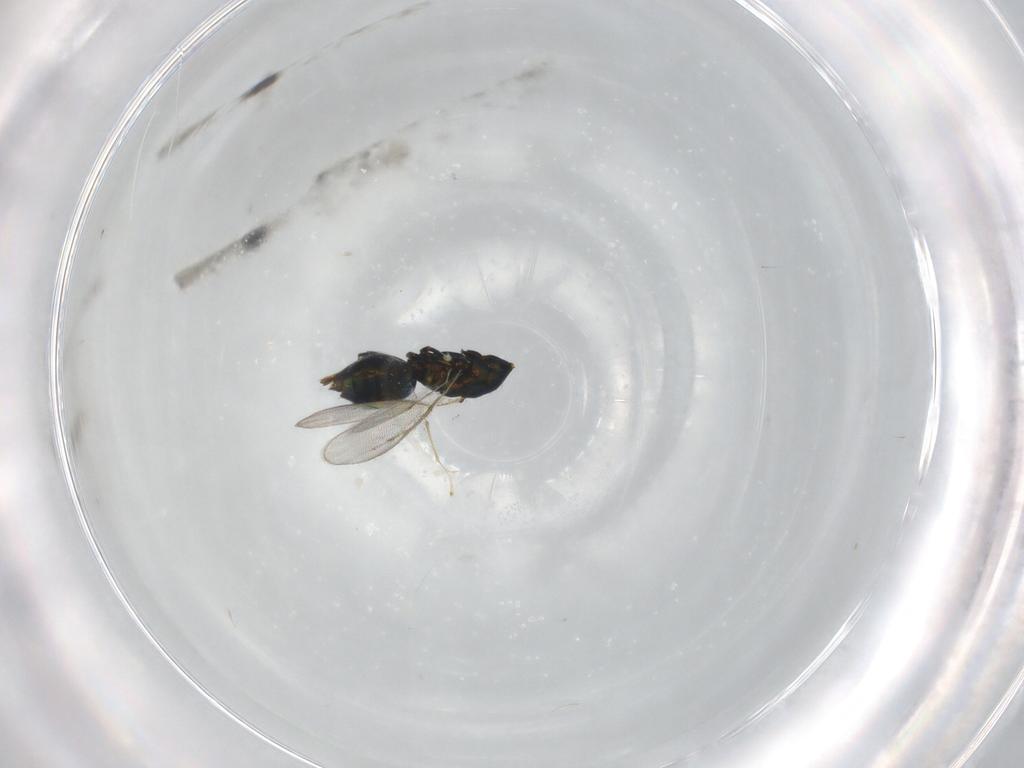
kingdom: Animalia
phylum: Arthropoda
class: Insecta
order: Hymenoptera
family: Eulophidae
